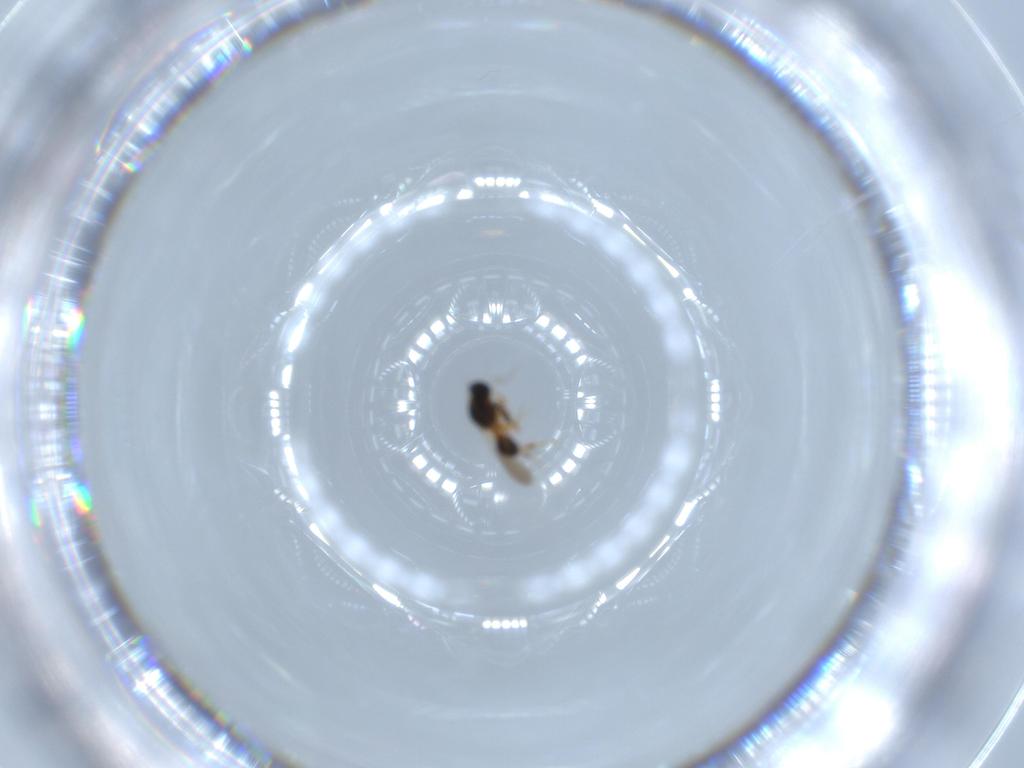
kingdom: Animalia
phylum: Arthropoda
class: Insecta
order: Hymenoptera
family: Platygastridae
